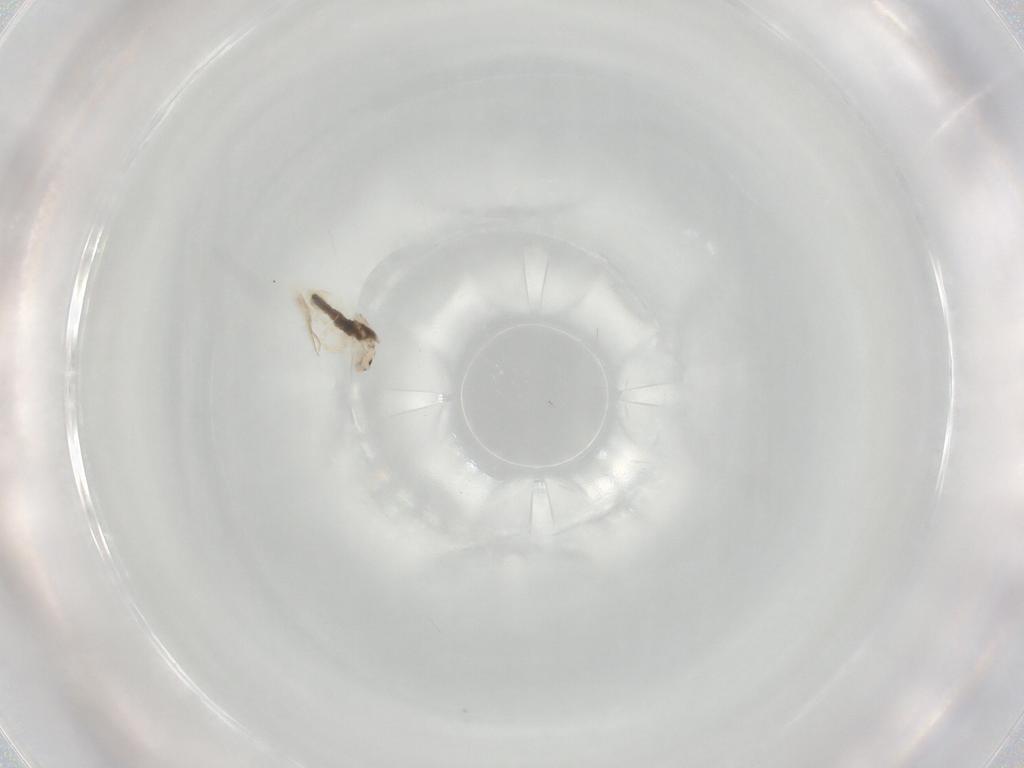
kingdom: Animalia
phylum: Arthropoda
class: Collembola
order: Entomobryomorpha
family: Entomobryidae
